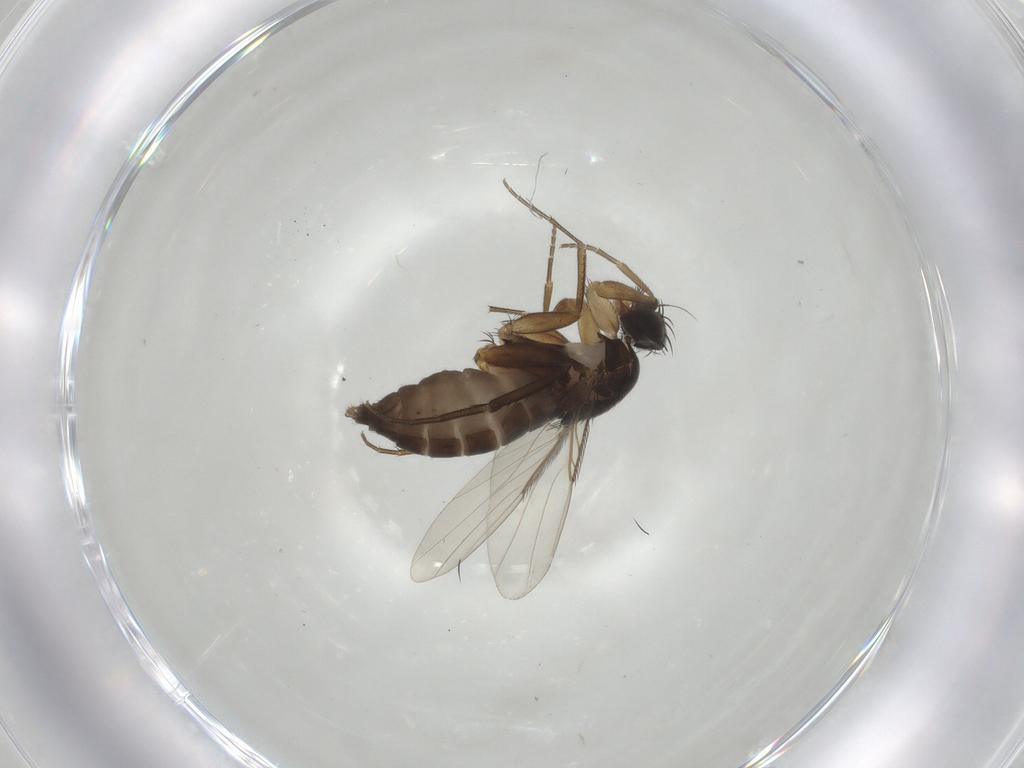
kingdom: Animalia
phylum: Arthropoda
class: Insecta
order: Diptera
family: Phoridae
